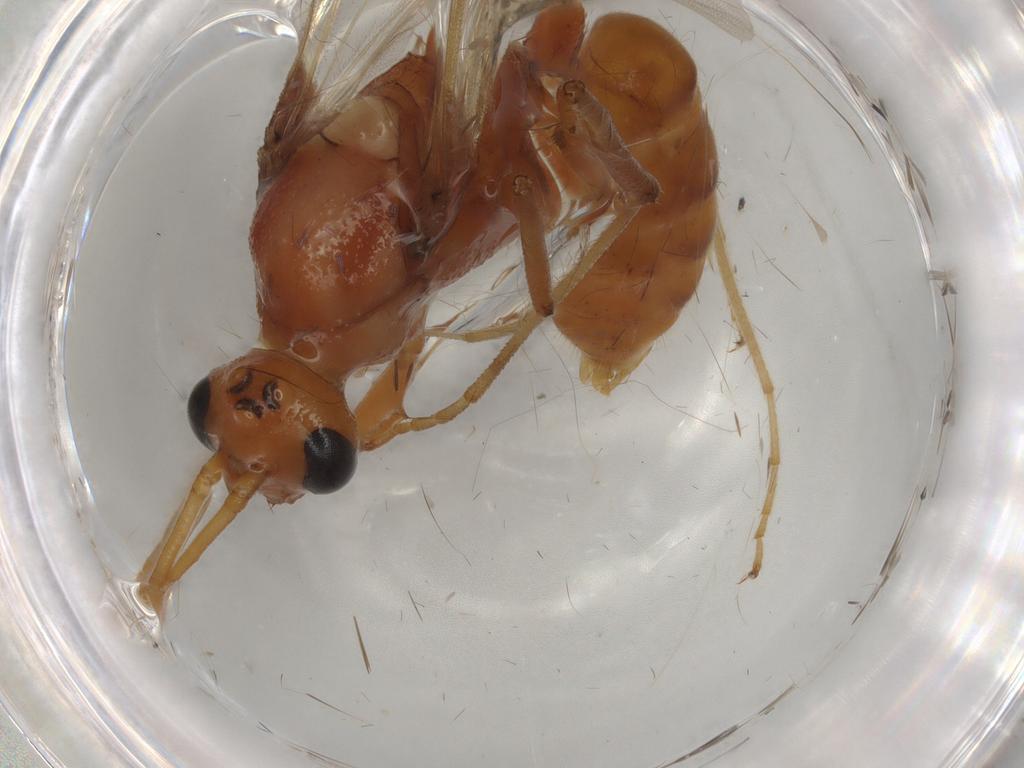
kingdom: Animalia
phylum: Arthropoda
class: Insecta
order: Hymenoptera
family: Formicidae
